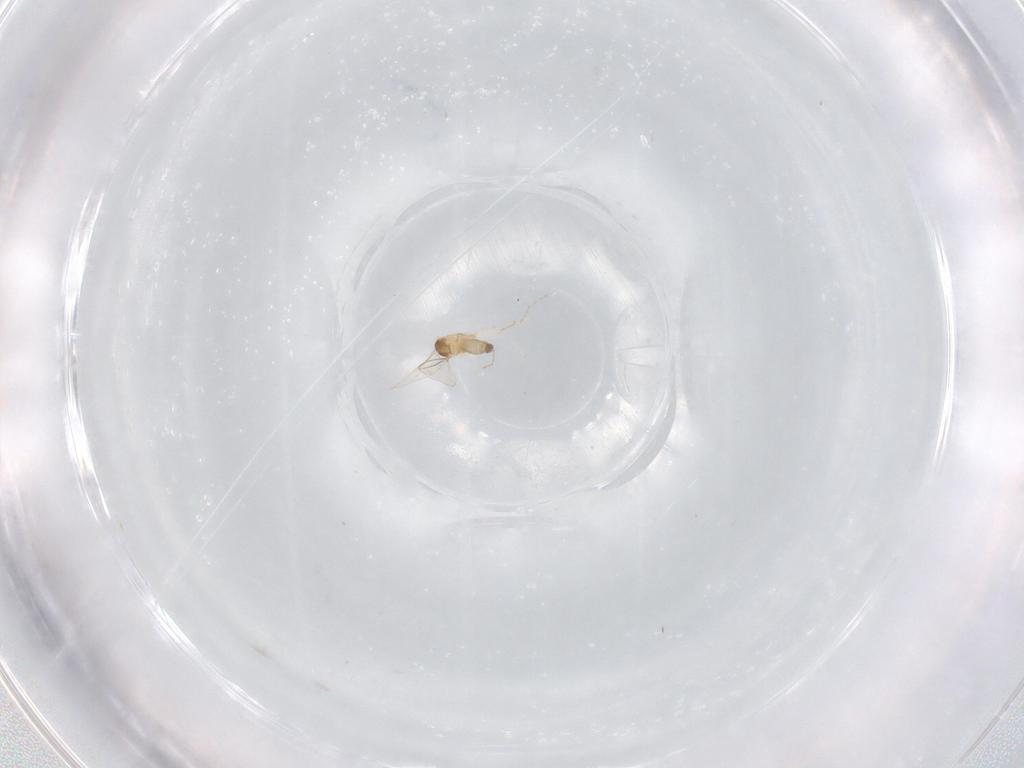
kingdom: Animalia
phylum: Arthropoda
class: Insecta
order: Diptera
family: Cecidomyiidae
